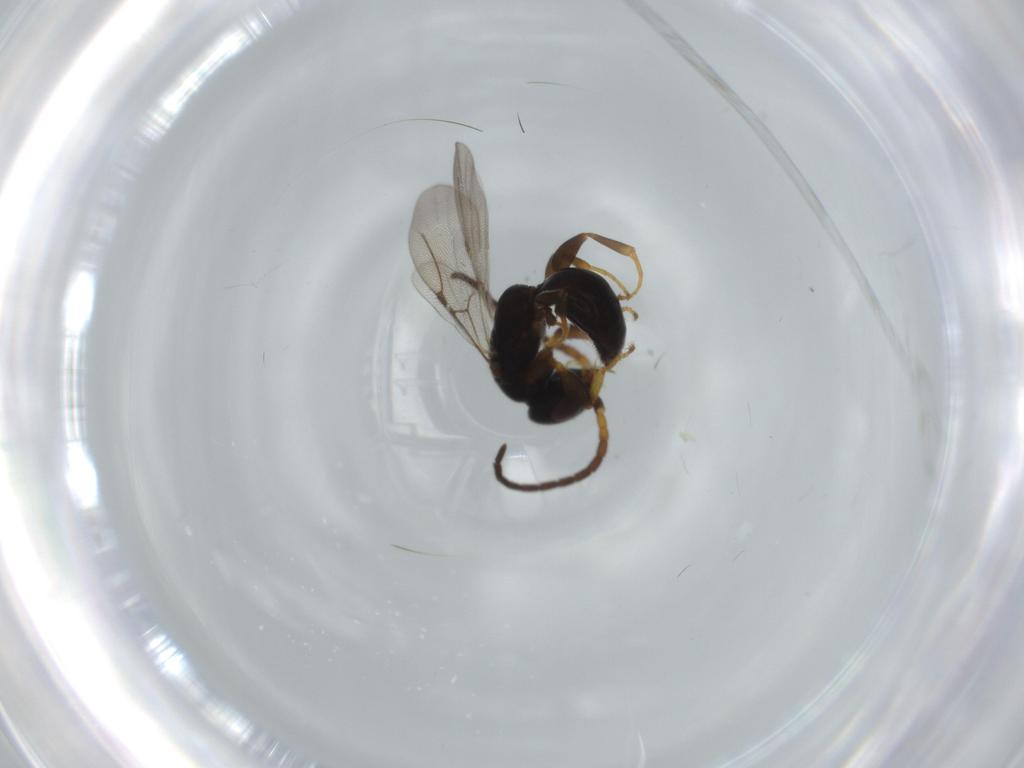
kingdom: Animalia
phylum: Arthropoda
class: Insecta
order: Hymenoptera
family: Bethylidae
